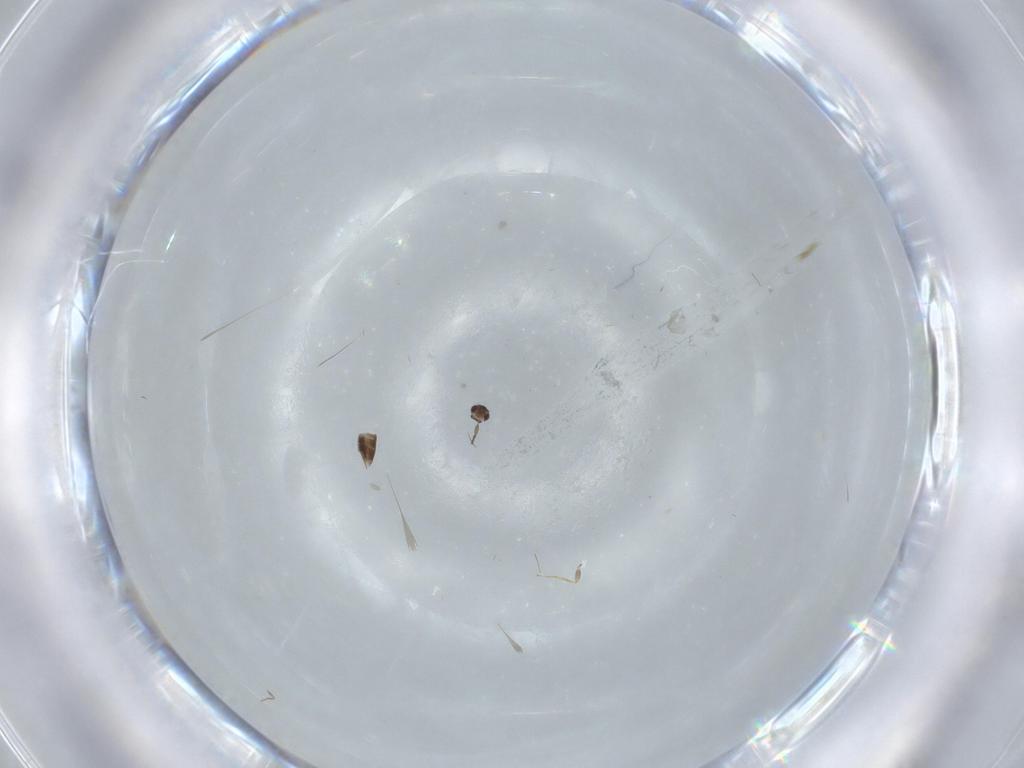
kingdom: Animalia
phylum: Arthropoda
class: Insecta
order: Hymenoptera
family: Mymaridae
